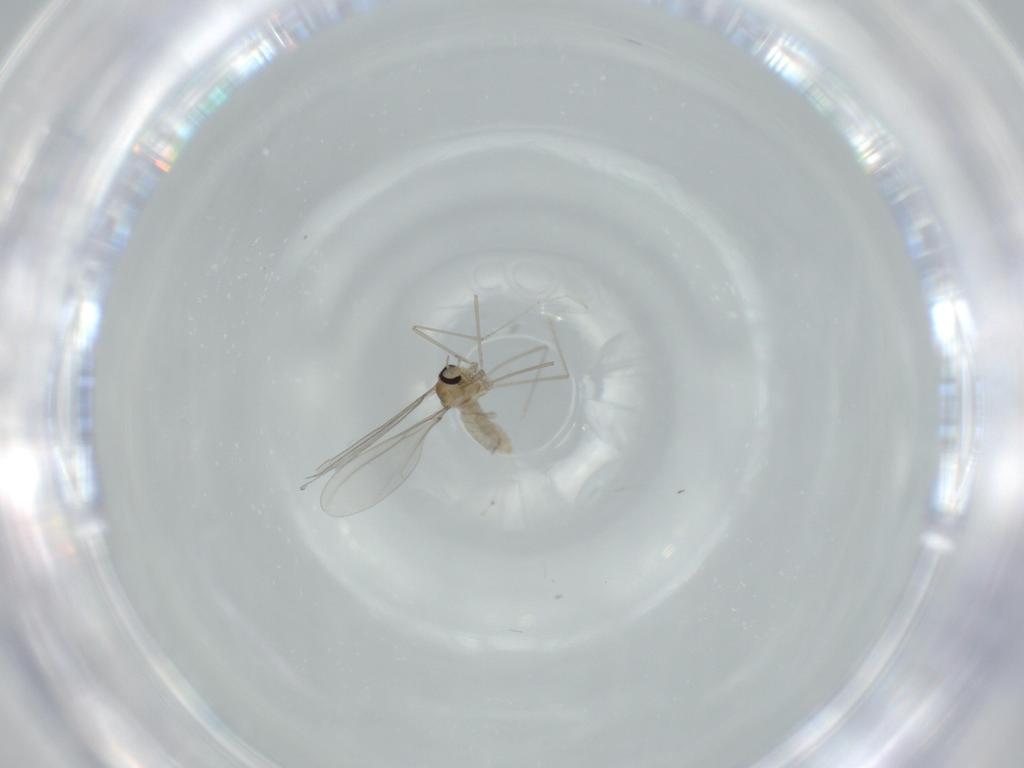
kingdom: Animalia
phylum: Arthropoda
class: Insecta
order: Diptera
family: Cecidomyiidae
